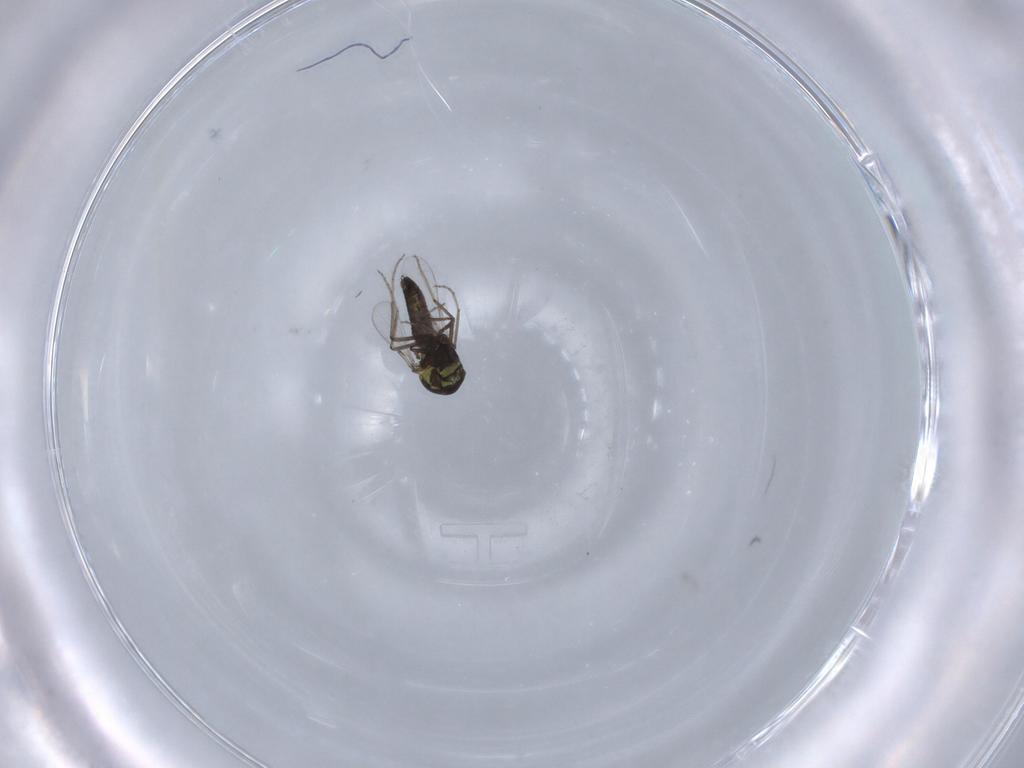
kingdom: Animalia
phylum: Arthropoda
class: Insecta
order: Diptera
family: Ceratopogonidae
